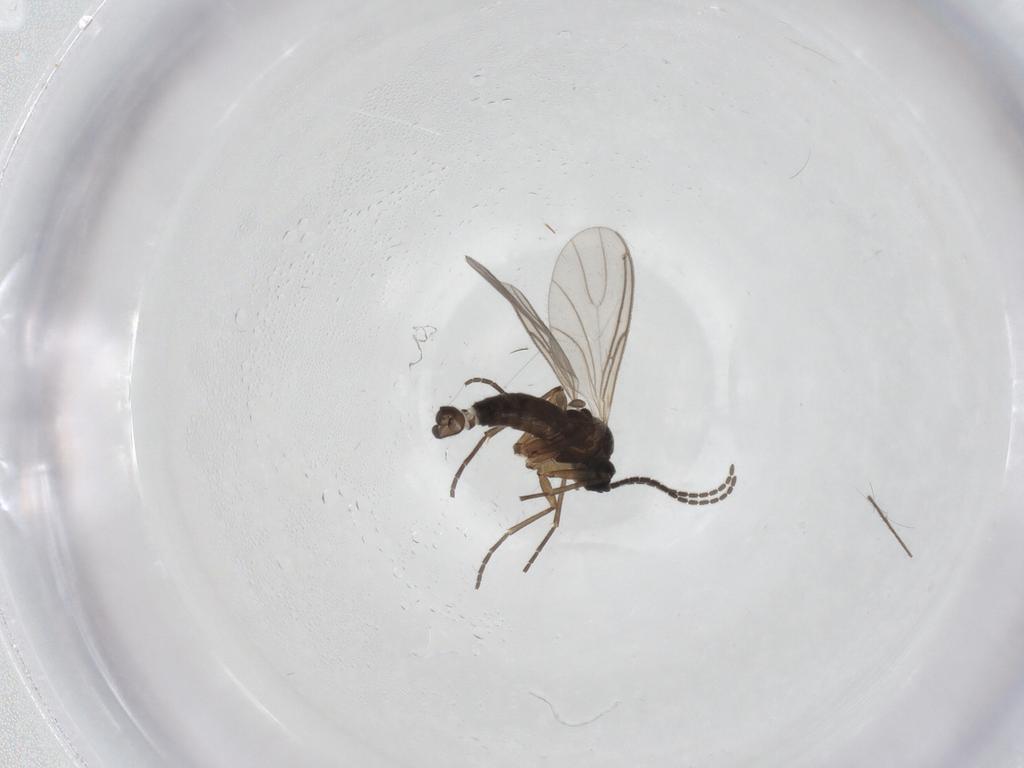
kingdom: Animalia
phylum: Arthropoda
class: Insecta
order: Diptera
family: Sciaridae
